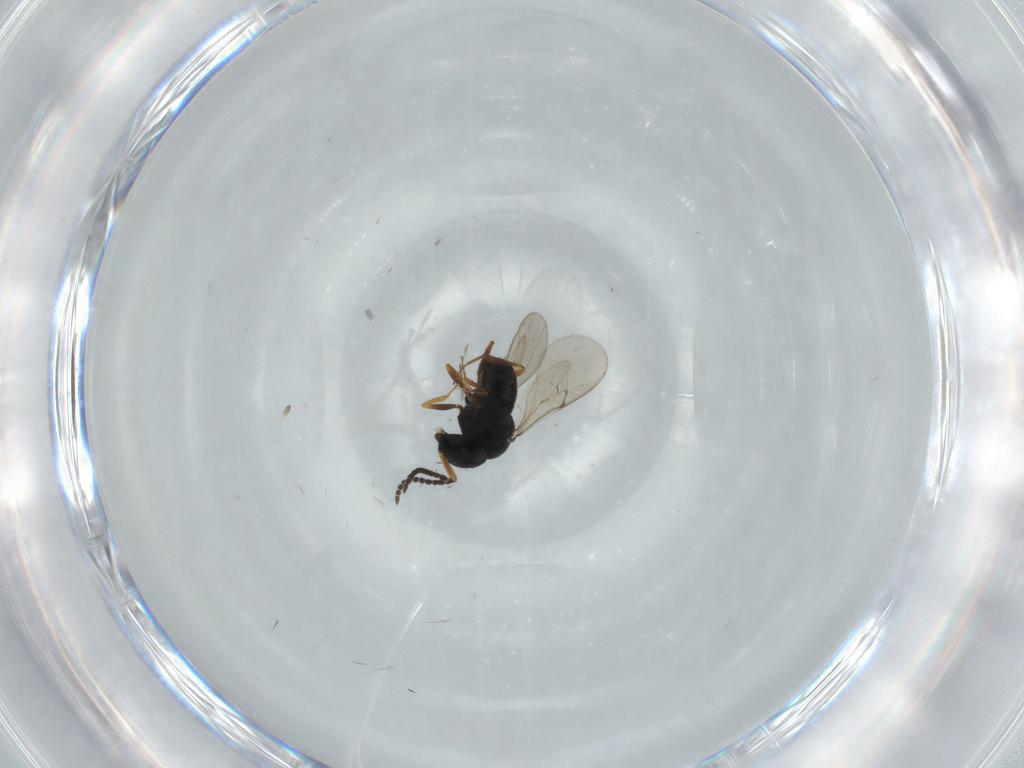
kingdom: Animalia
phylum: Arthropoda
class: Insecta
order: Hymenoptera
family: Scelionidae
